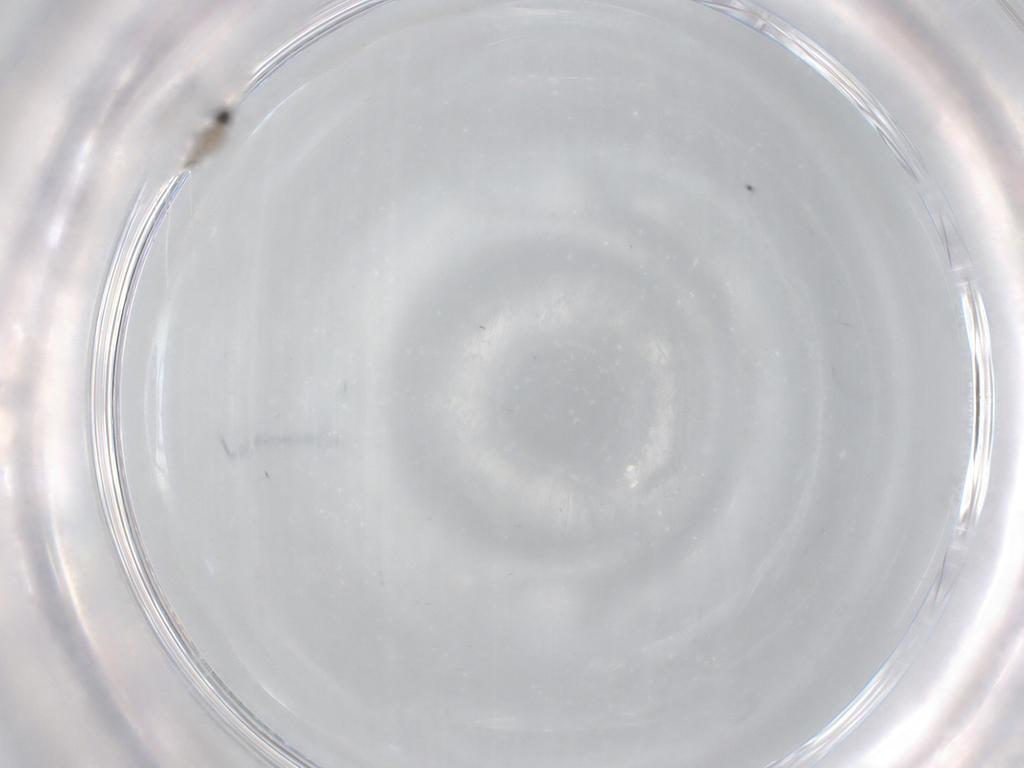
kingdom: Animalia
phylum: Arthropoda
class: Insecta
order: Diptera
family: Cecidomyiidae
